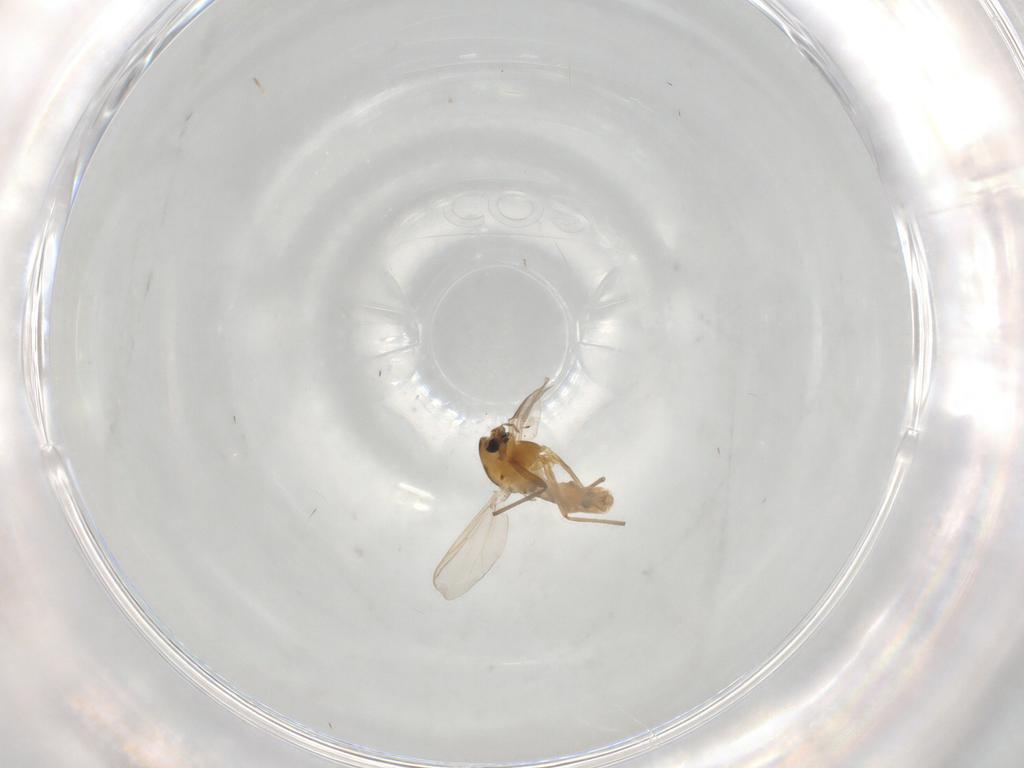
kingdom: Animalia
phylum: Arthropoda
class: Insecta
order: Diptera
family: Chironomidae
